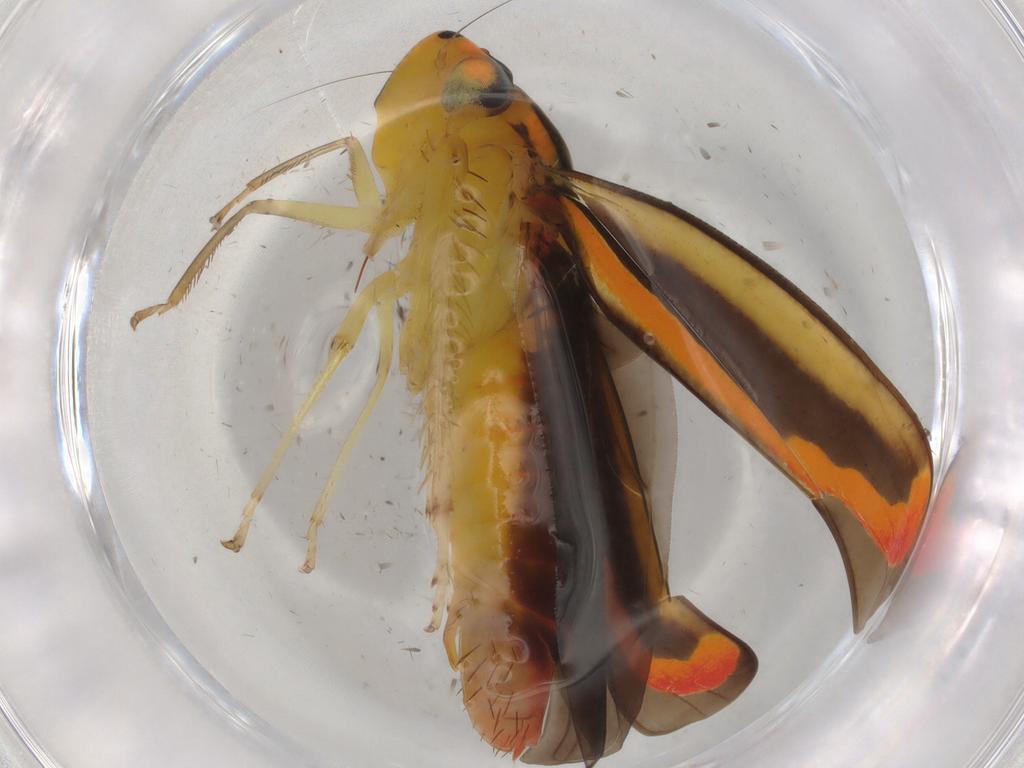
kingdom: Animalia
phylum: Arthropoda
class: Insecta
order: Hemiptera
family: Cicadellidae
